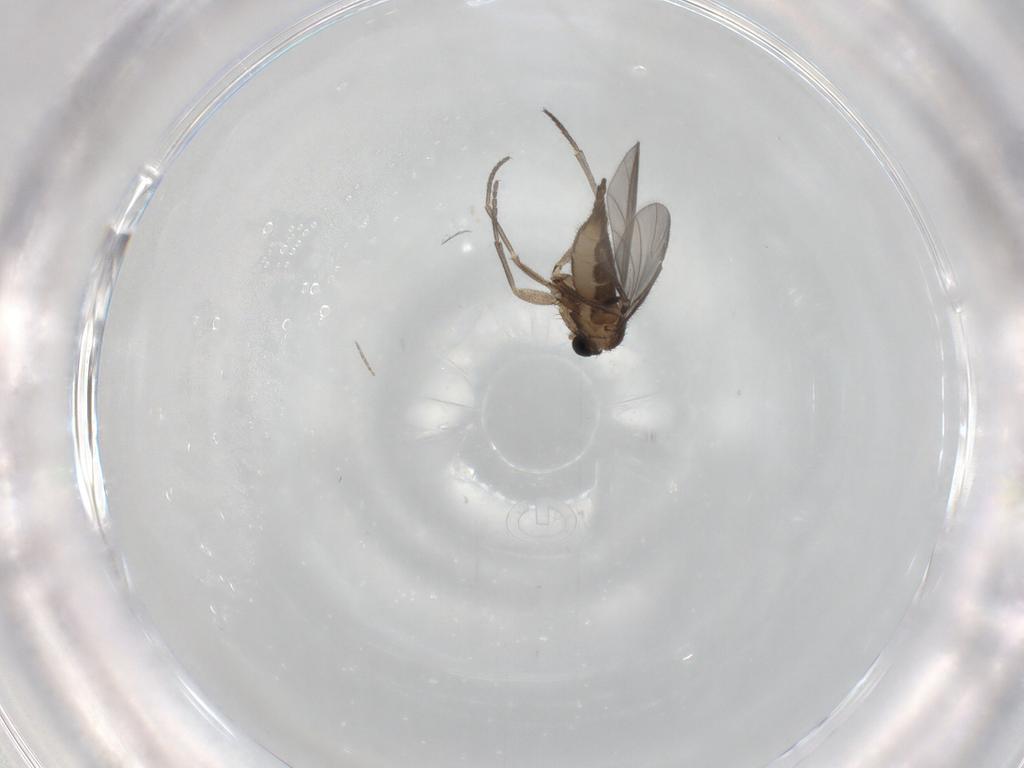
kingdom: Animalia
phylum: Arthropoda
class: Insecta
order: Diptera
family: Sciaridae
